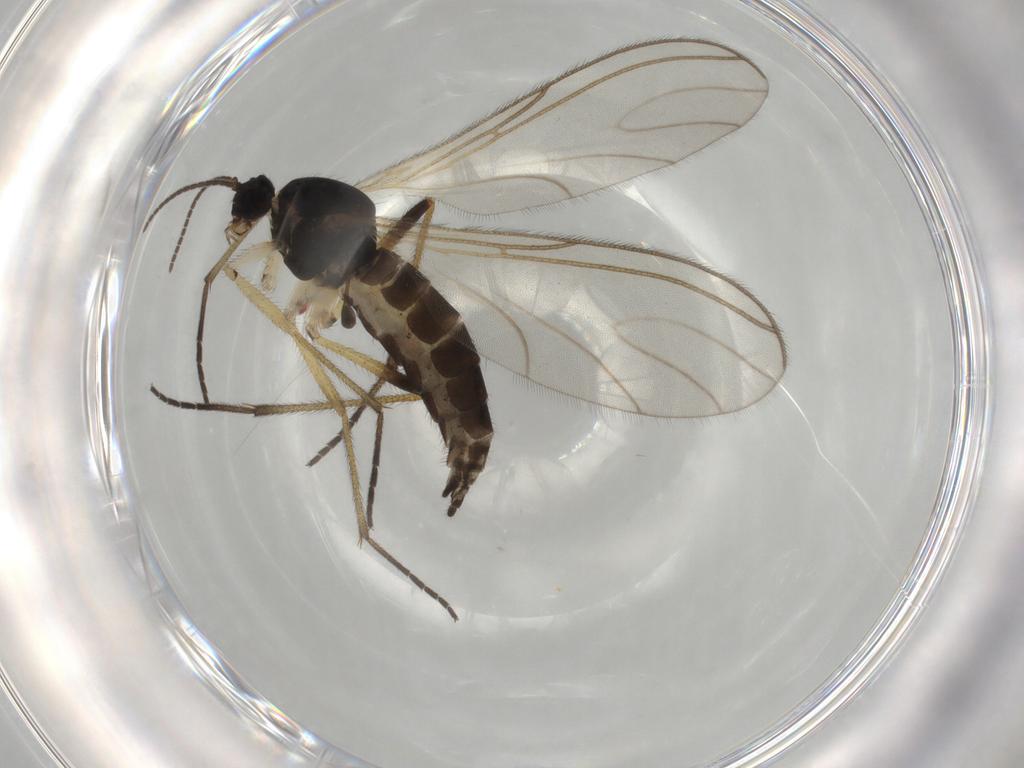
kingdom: Animalia
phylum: Arthropoda
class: Insecta
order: Diptera
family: Sciaridae
